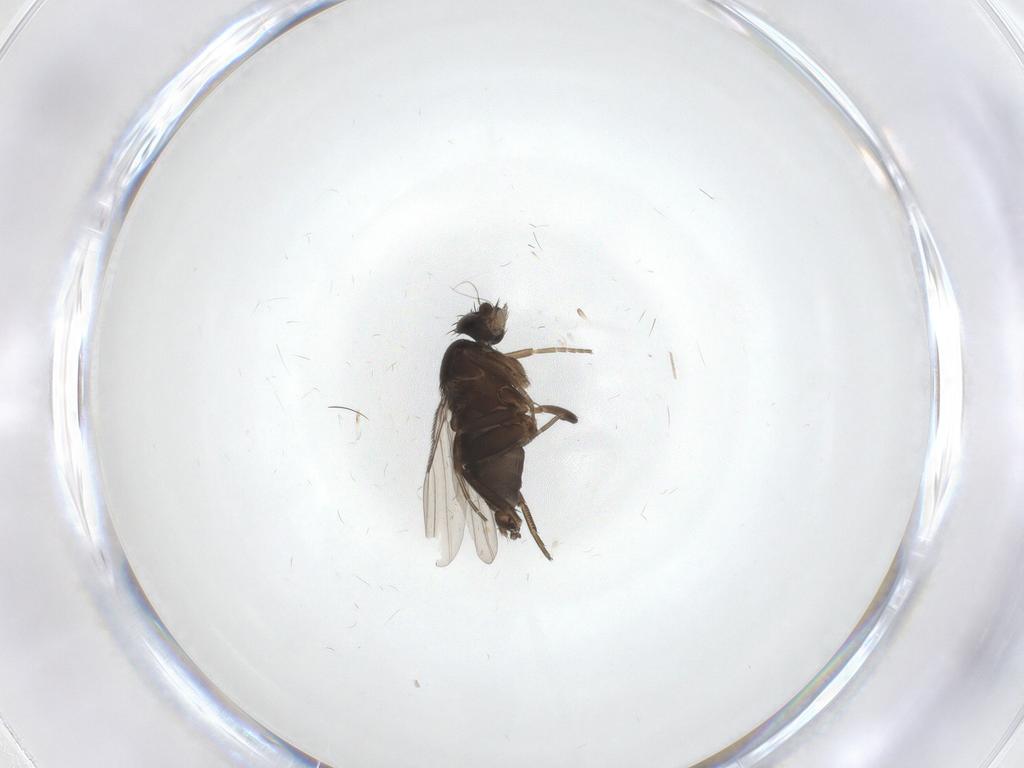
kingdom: Animalia
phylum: Arthropoda
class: Insecta
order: Diptera
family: Phoridae
